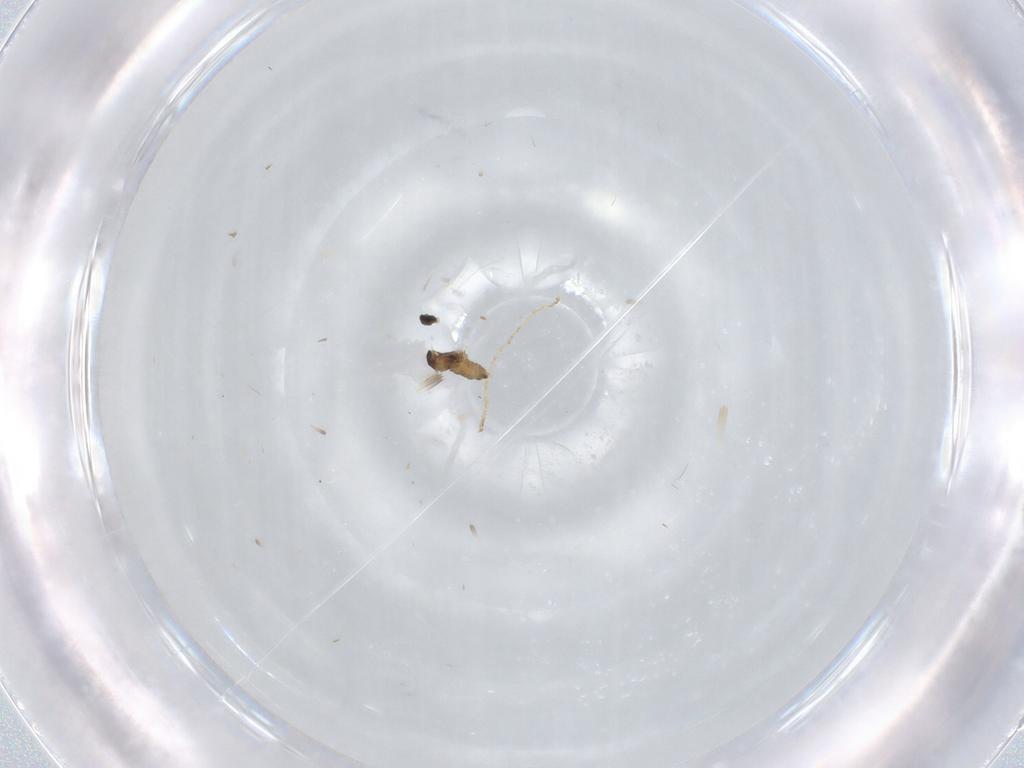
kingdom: Animalia
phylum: Arthropoda
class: Insecta
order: Diptera
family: Cecidomyiidae
